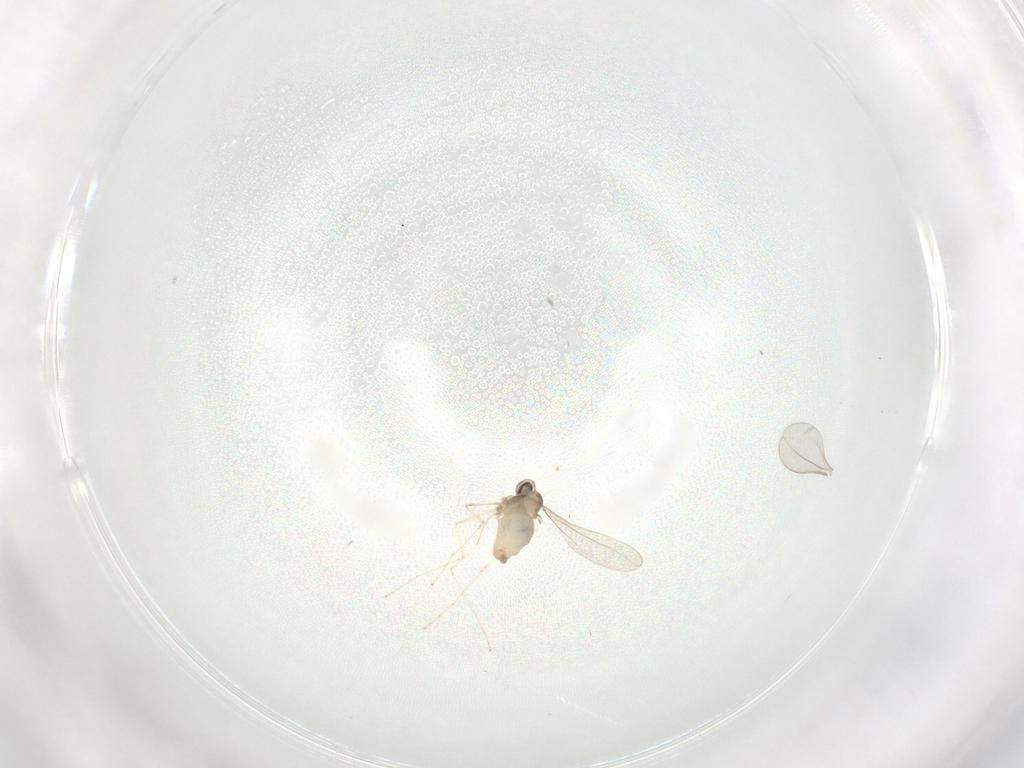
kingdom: Animalia
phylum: Arthropoda
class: Insecta
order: Diptera
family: Cecidomyiidae
